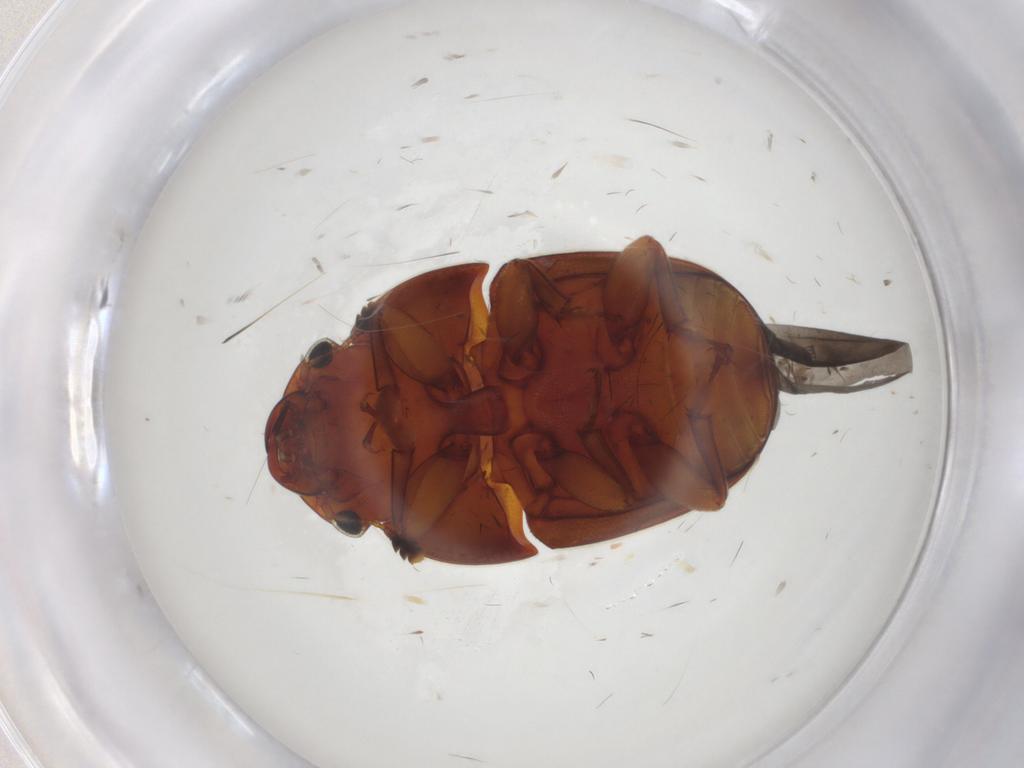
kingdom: Animalia
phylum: Arthropoda
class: Insecta
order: Coleoptera
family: Nitidulidae
